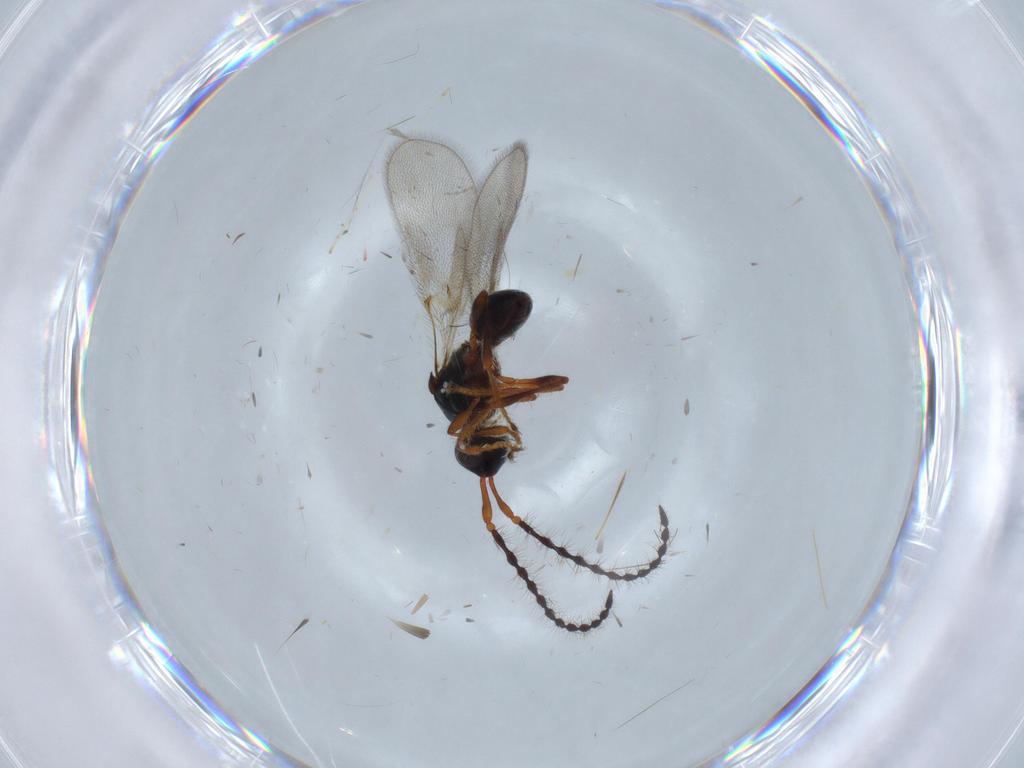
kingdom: Animalia
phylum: Arthropoda
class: Insecta
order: Hymenoptera
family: Diapriidae
